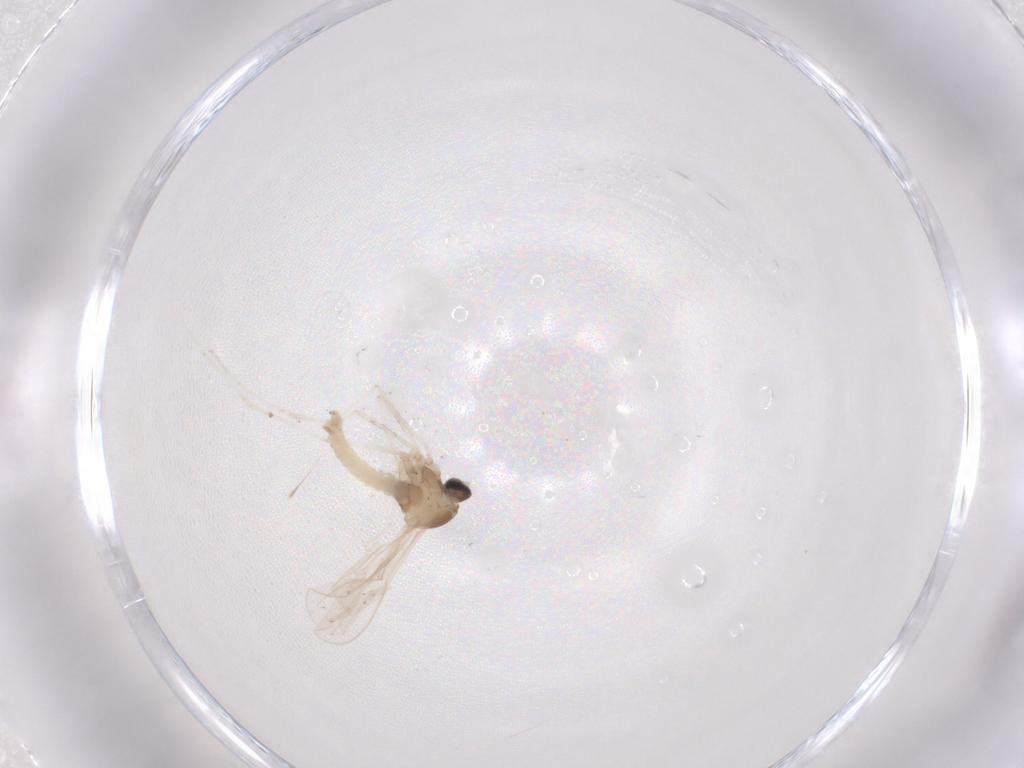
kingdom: Animalia
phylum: Arthropoda
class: Insecta
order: Diptera
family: Cecidomyiidae
